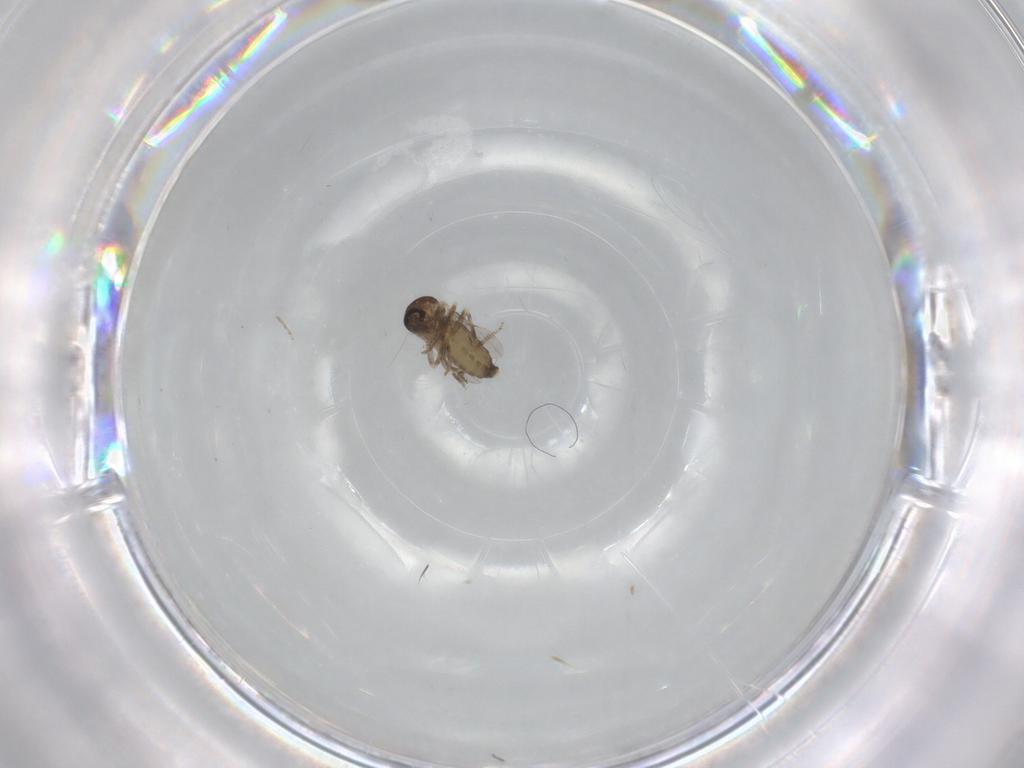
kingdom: Animalia
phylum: Arthropoda
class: Insecta
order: Diptera
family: Ceratopogonidae
